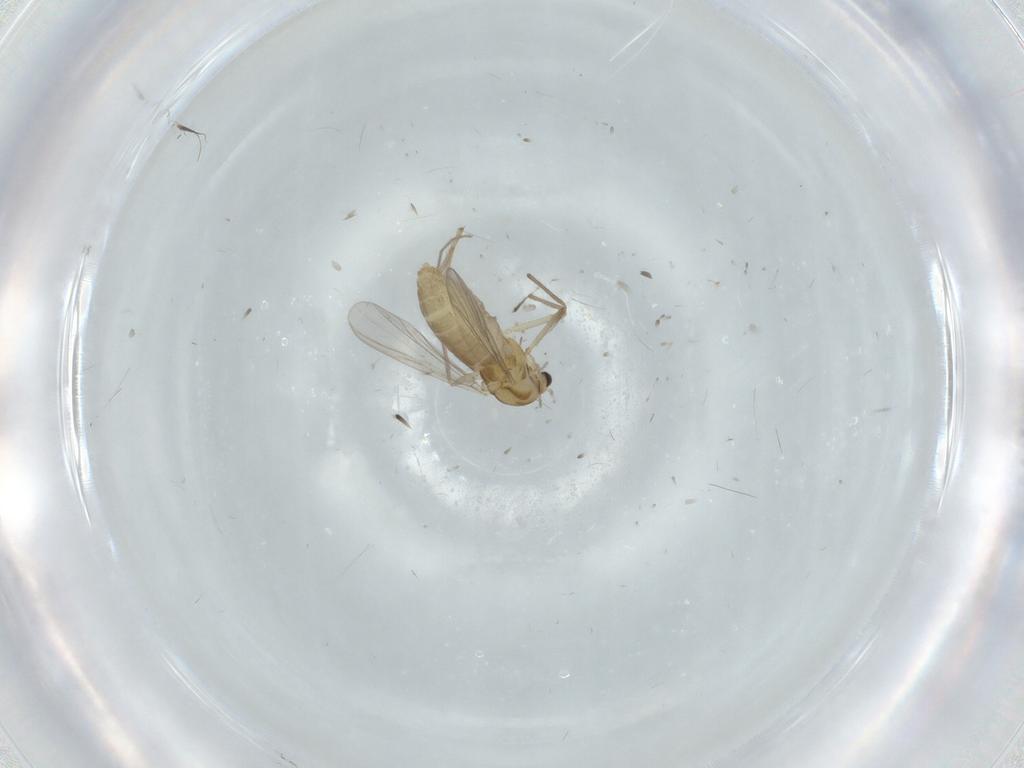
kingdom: Animalia
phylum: Arthropoda
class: Insecta
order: Diptera
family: Chironomidae
